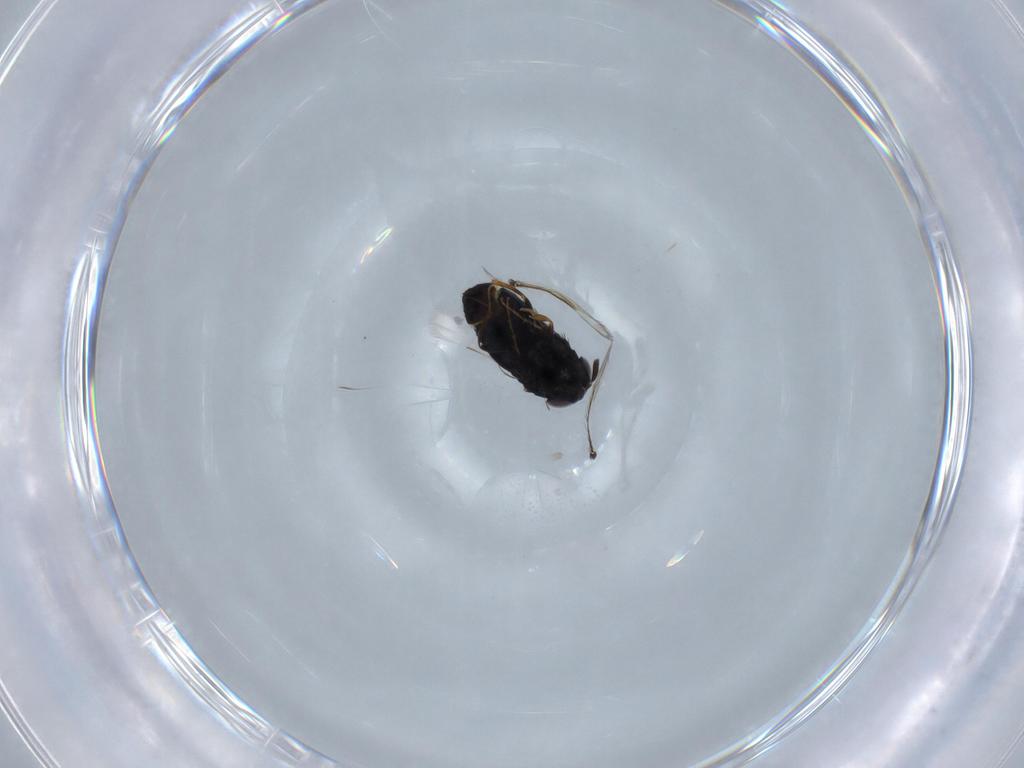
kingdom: Animalia
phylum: Arthropoda
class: Insecta
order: Hymenoptera
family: Signiphoridae
